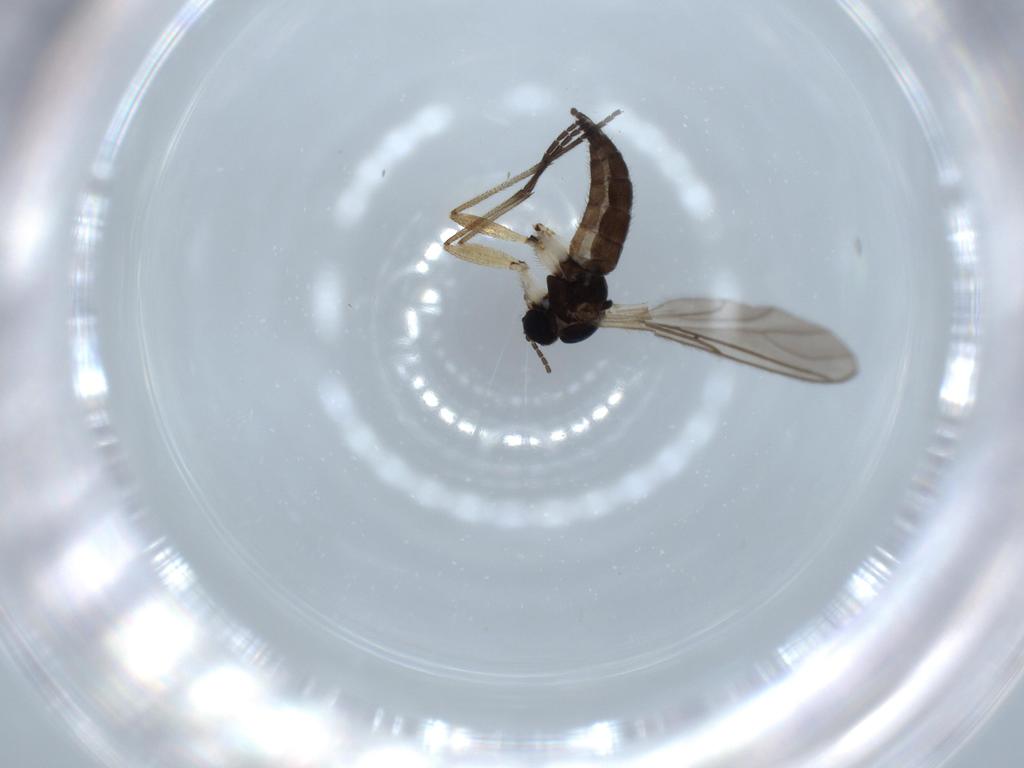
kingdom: Animalia
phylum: Arthropoda
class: Insecta
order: Diptera
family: Sciaridae
